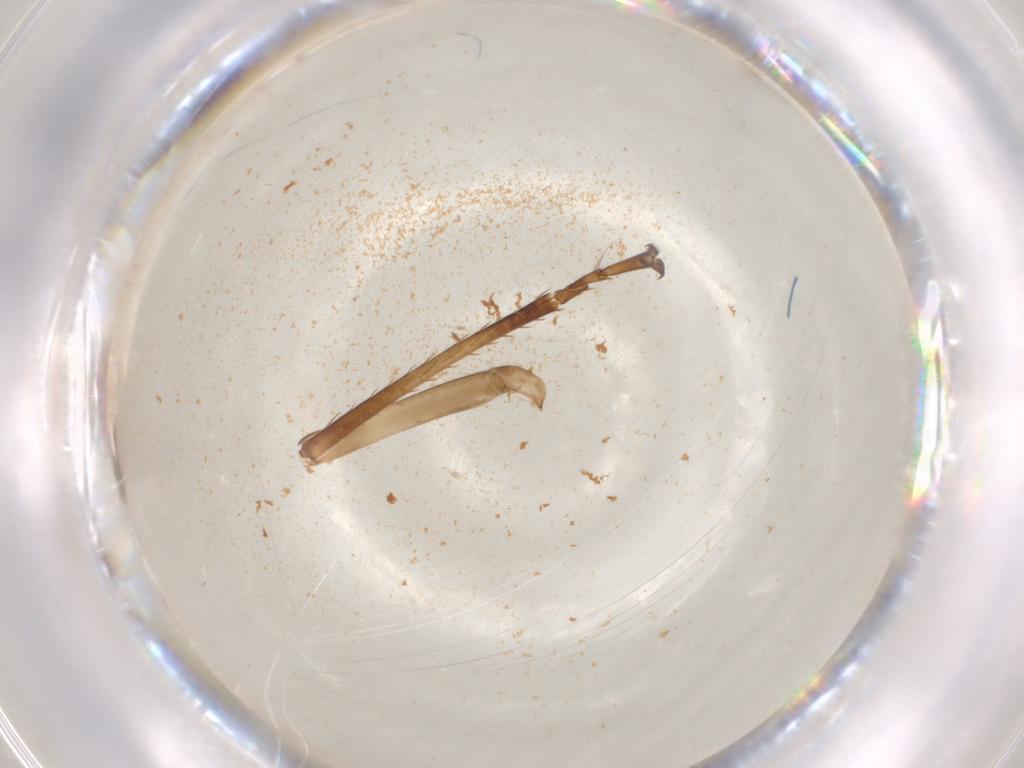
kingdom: Animalia
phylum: Arthropoda
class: Insecta
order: Hemiptera
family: Cicadellidae
